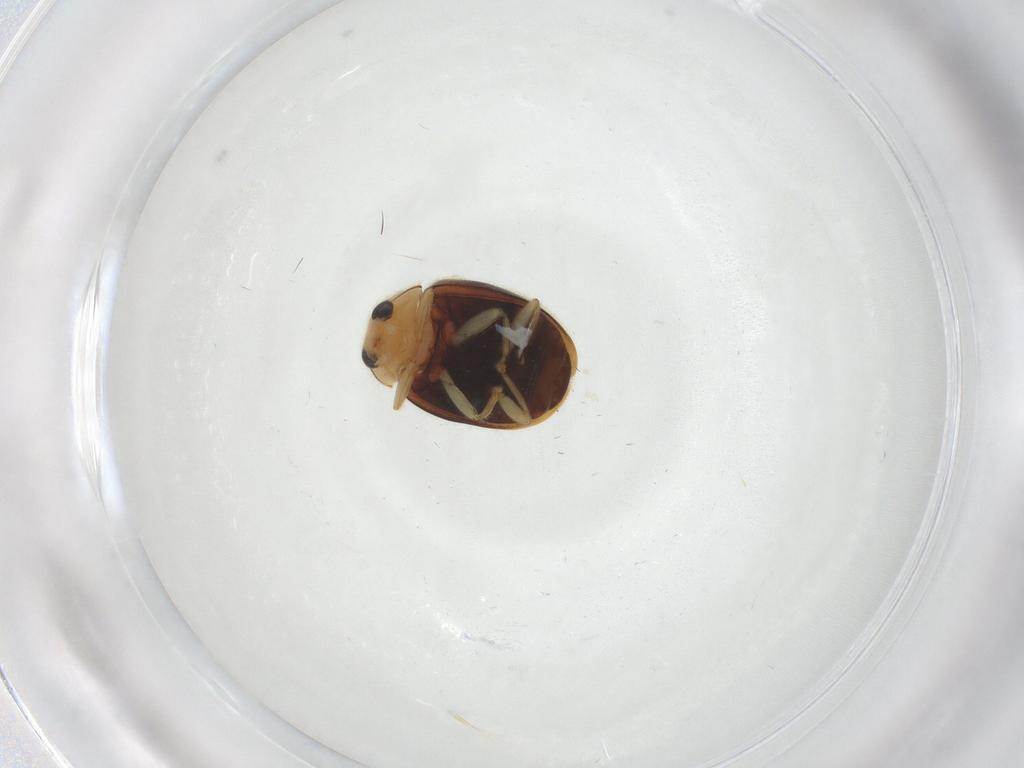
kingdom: Animalia
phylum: Arthropoda
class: Insecta
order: Coleoptera
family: Coccinellidae
